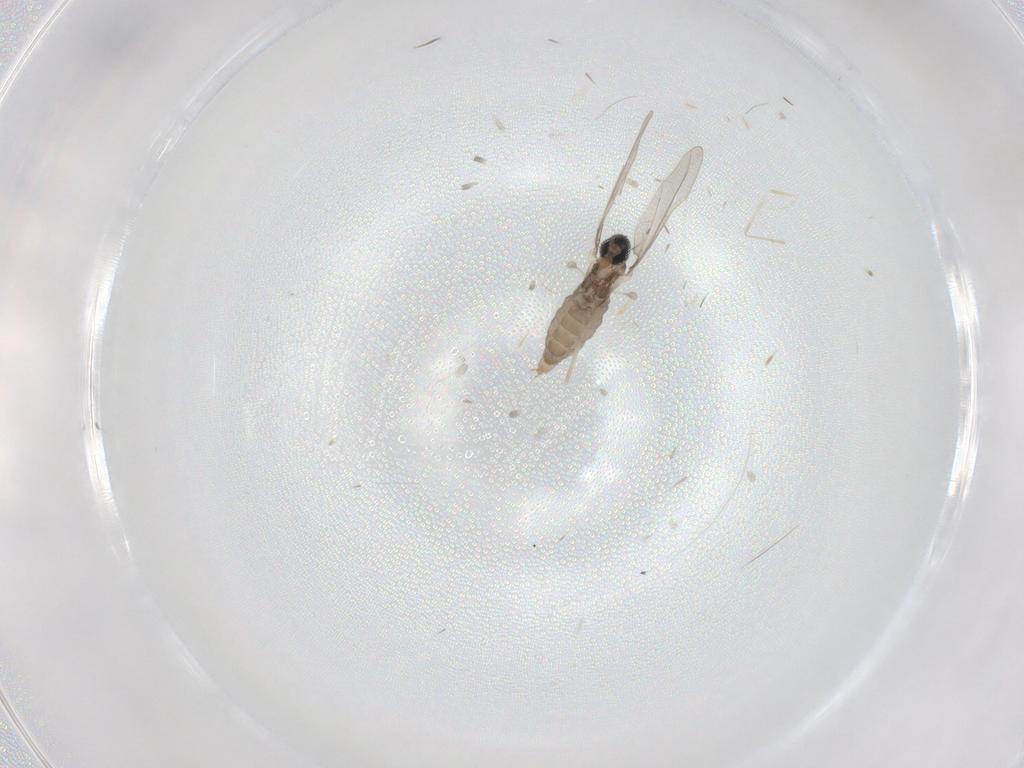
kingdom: Animalia
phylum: Arthropoda
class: Insecta
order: Diptera
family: Cecidomyiidae
